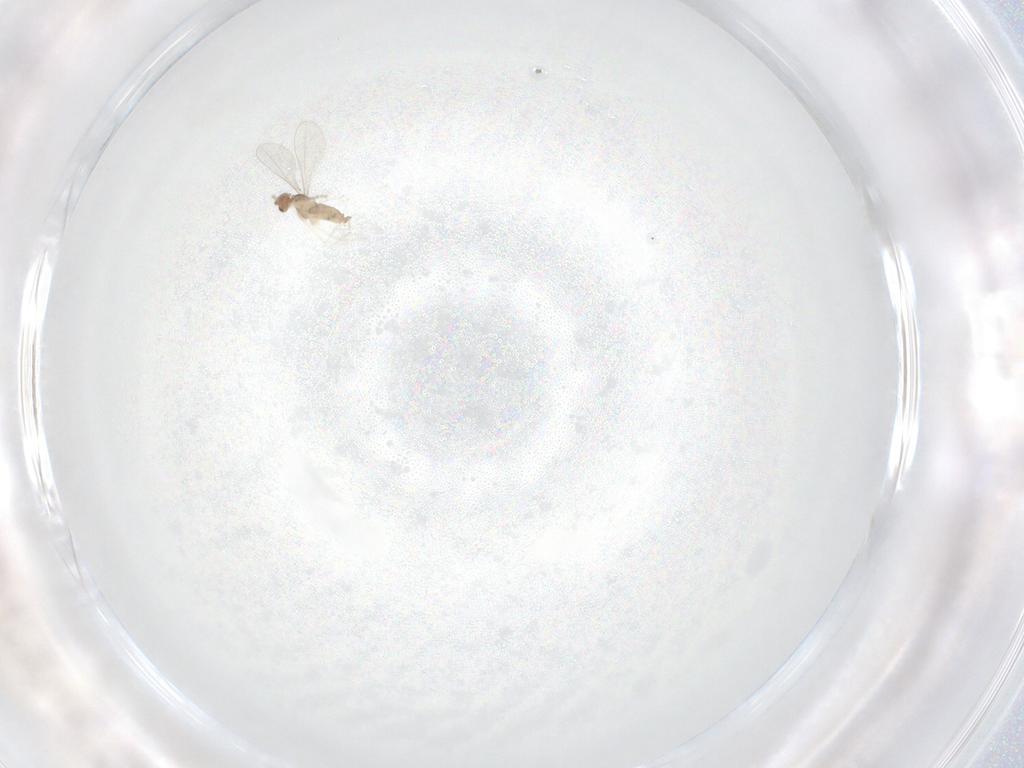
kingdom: Animalia
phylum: Arthropoda
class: Insecta
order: Diptera
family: Cecidomyiidae
